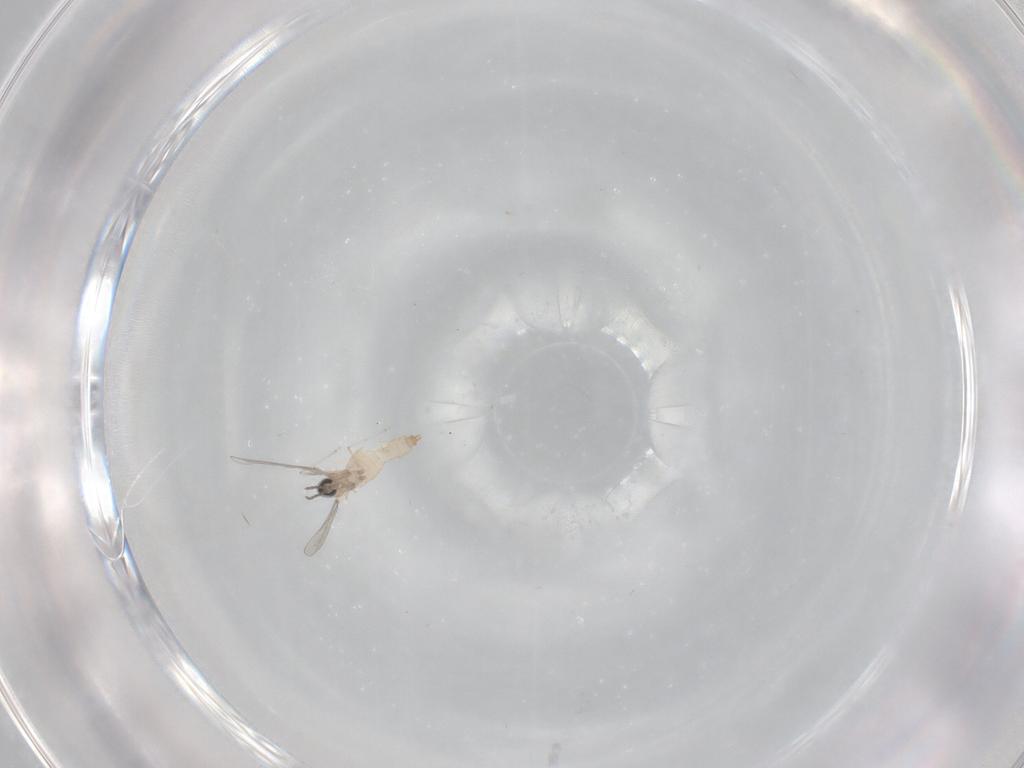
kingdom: Animalia
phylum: Arthropoda
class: Insecta
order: Diptera
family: Cecidomyiidae
